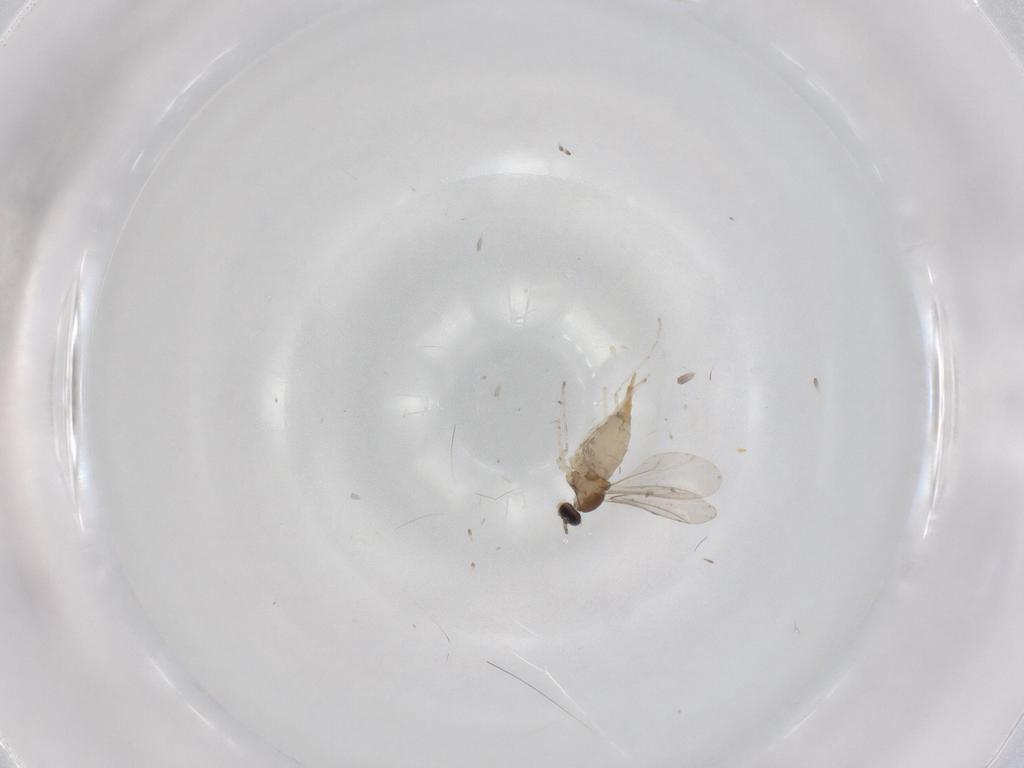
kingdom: Animalia
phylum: Arthropoda
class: Insecta
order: Diptera
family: Cecidomyiidae
